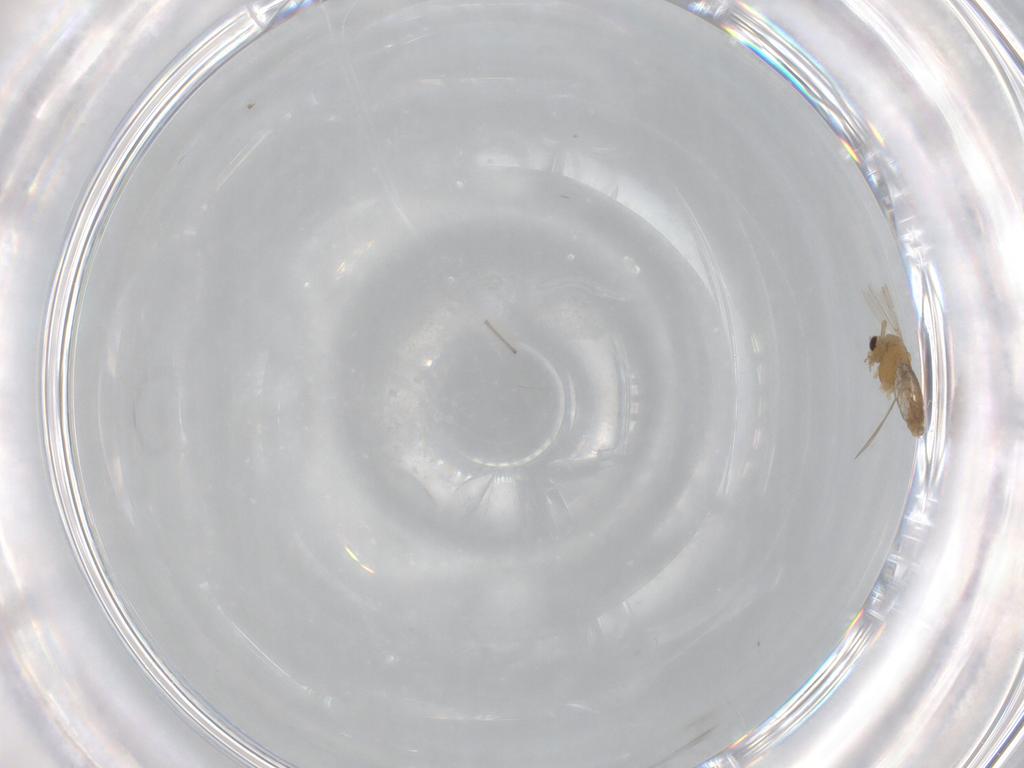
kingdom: Animalia
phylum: Arthropoda
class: Insecta
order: Diptera
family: Chironomidae
